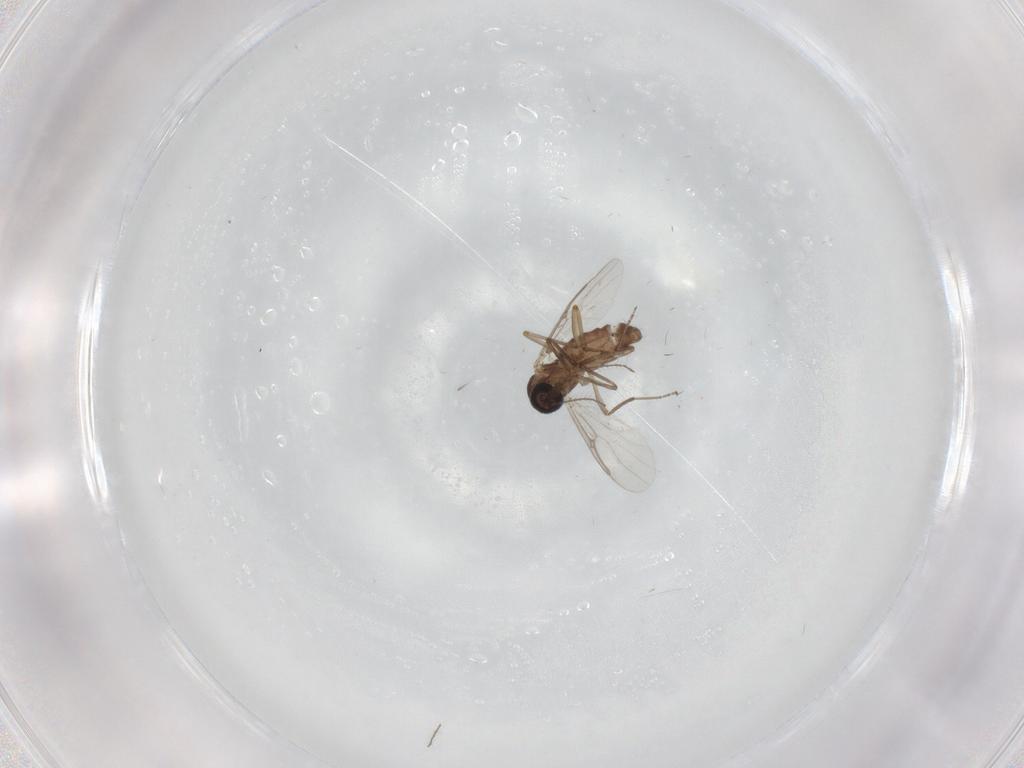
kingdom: Animalia
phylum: Arthropoda
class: Insecta
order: Diptera
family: Ceratopogonidae
